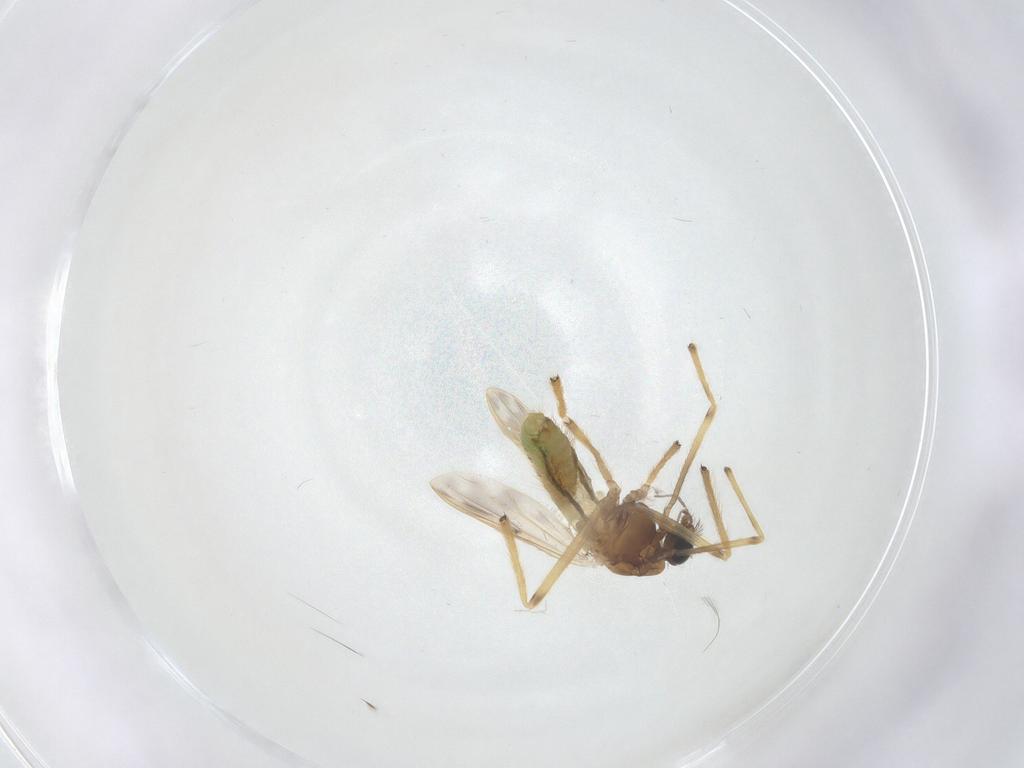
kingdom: Animalia
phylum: Arthropoda
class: Insecta
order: Diptera
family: Chironomidae
